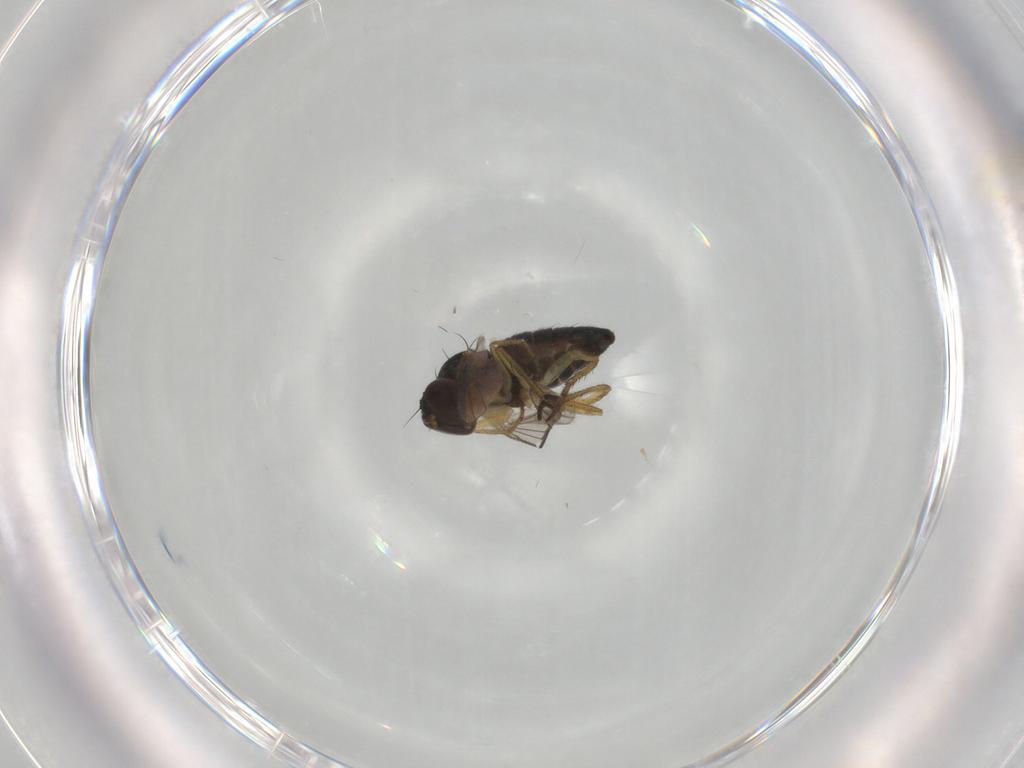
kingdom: Animalia
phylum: Arthropoda
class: Insecta
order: Diptera
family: Dolichopodidae
